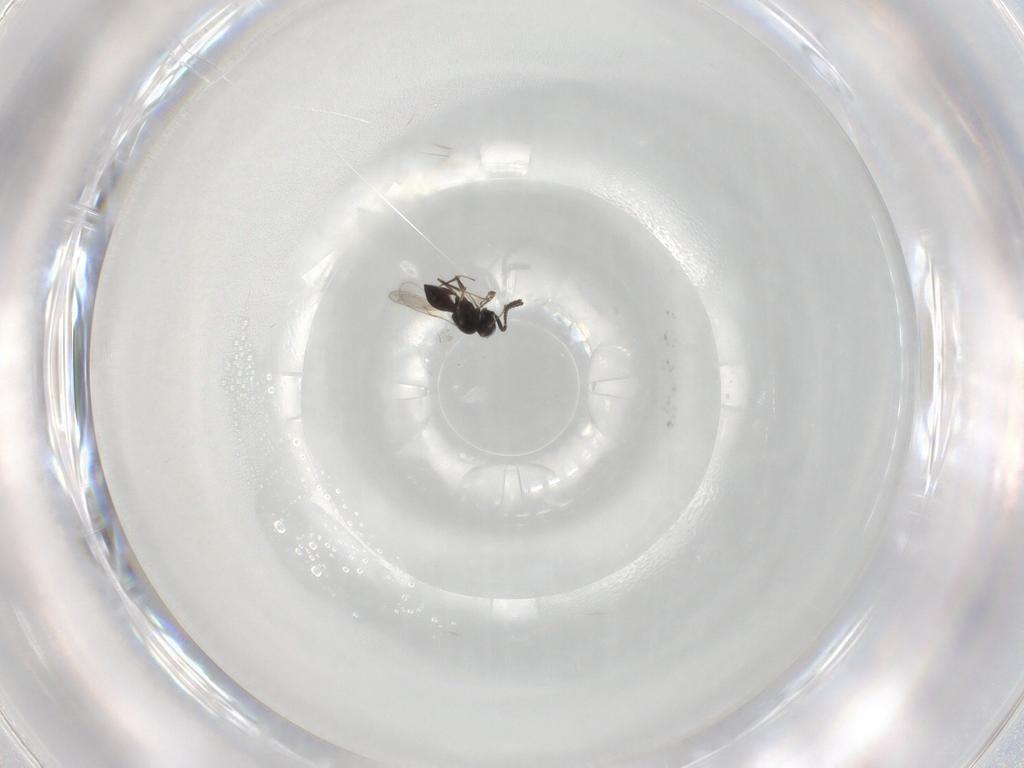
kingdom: Animalia
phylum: Arthropoda
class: Insecta
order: Hymenoptera
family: Scelionidae
